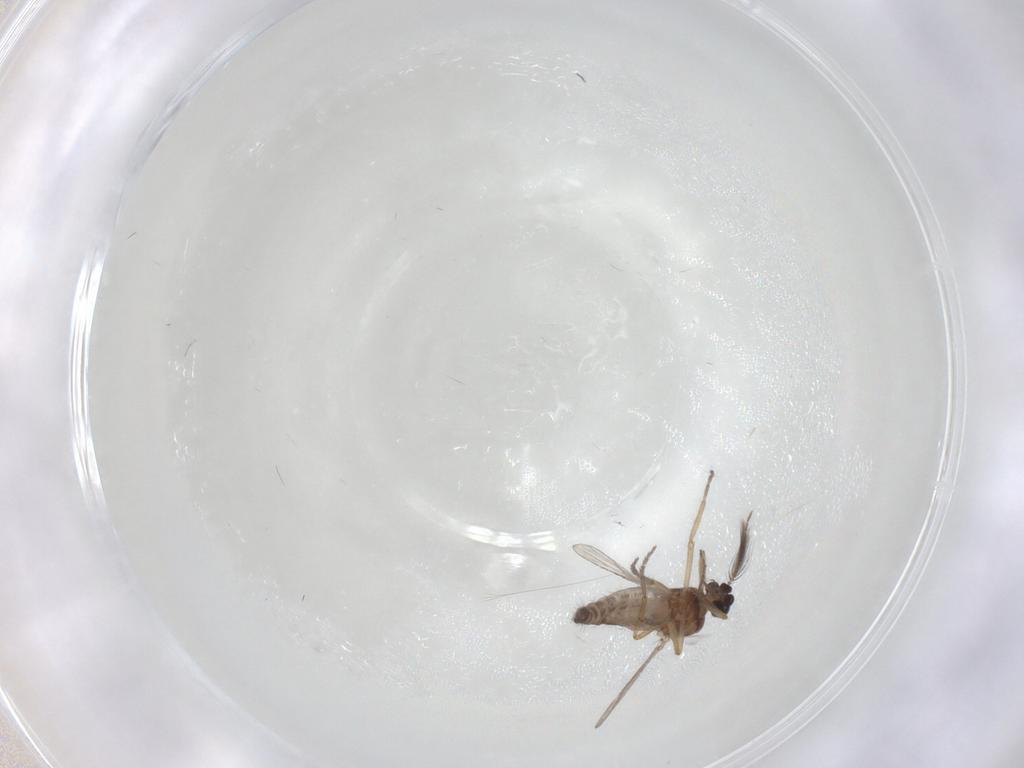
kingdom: Animalia
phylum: Arthropoda
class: Insecta
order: Diptera
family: Ceratopogonidae
